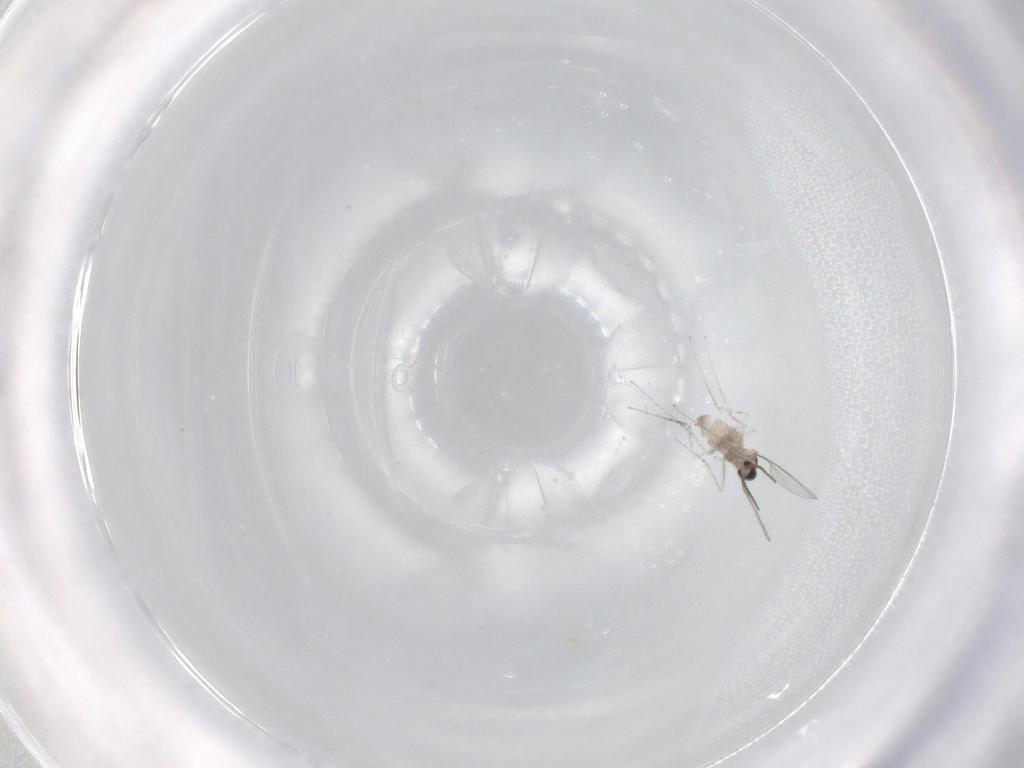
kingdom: Animalia
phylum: Arthropoda
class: Insecta
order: Diptera
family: Cecidomyiidae
